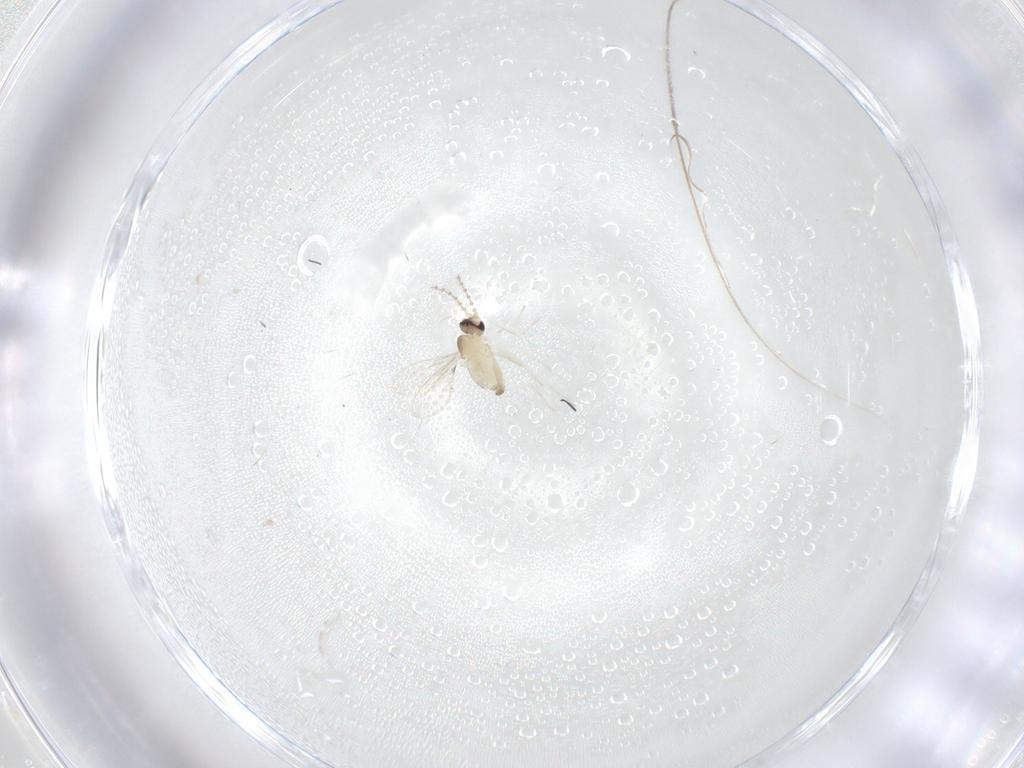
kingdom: Animalia
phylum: Arthropoda
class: Insecta
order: Diptera
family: Cecidomyiidae
